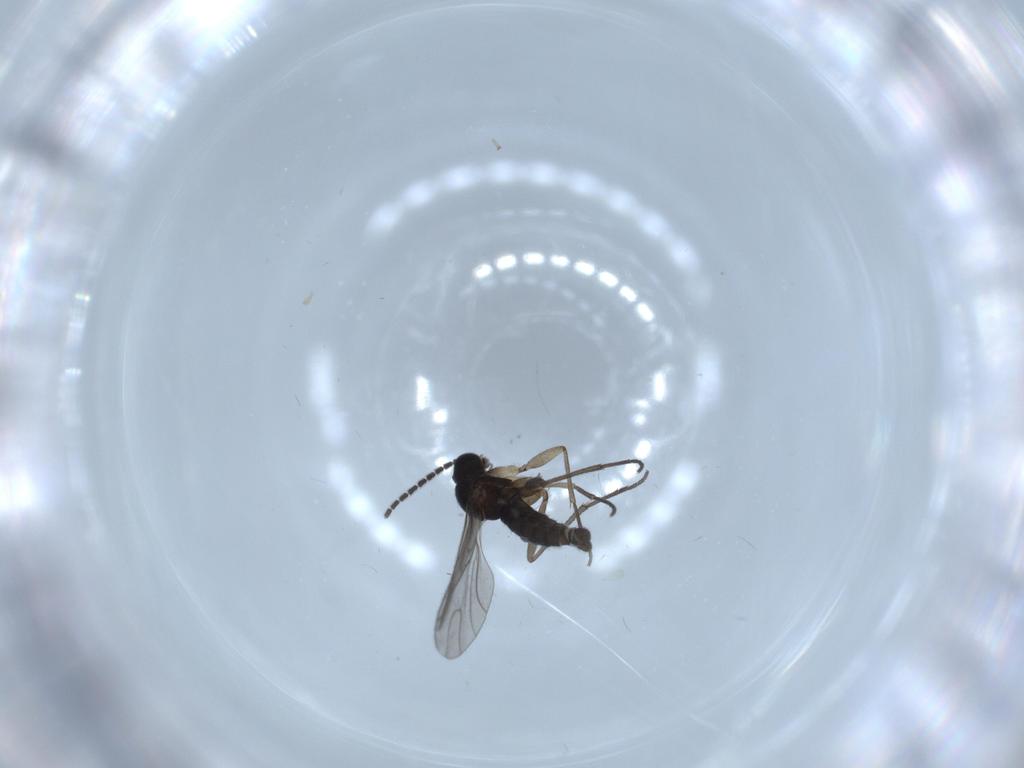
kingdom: Animalia
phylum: Arthropoda
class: Insecta
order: Diptera
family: Sciaridae
